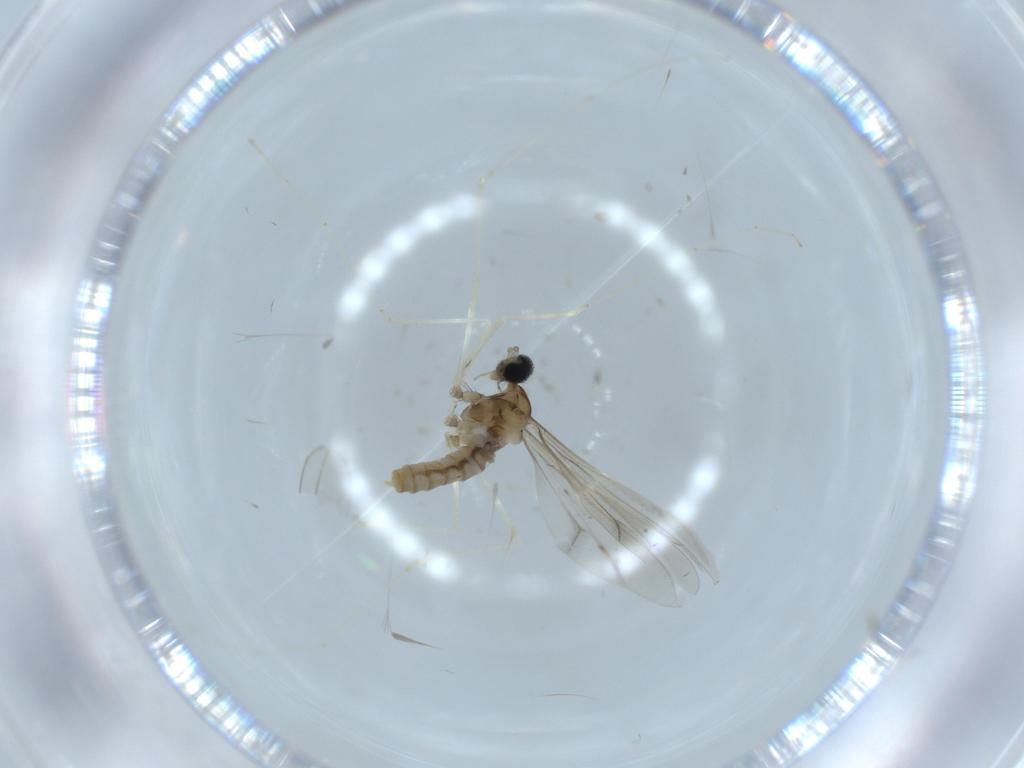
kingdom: Animalia
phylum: Arthropoda
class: Insecta
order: Diptera
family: Cecidomyiidae
